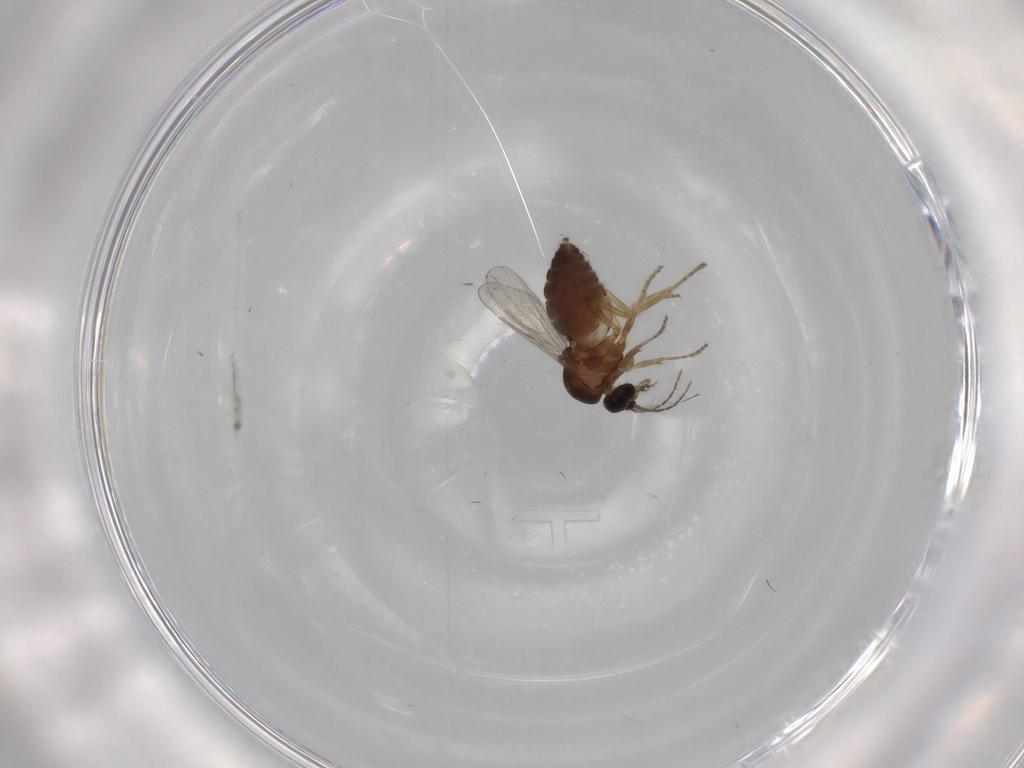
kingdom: Animalia
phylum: Arthropoda
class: Insecta
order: Diptera
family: Ceratopogonidae
